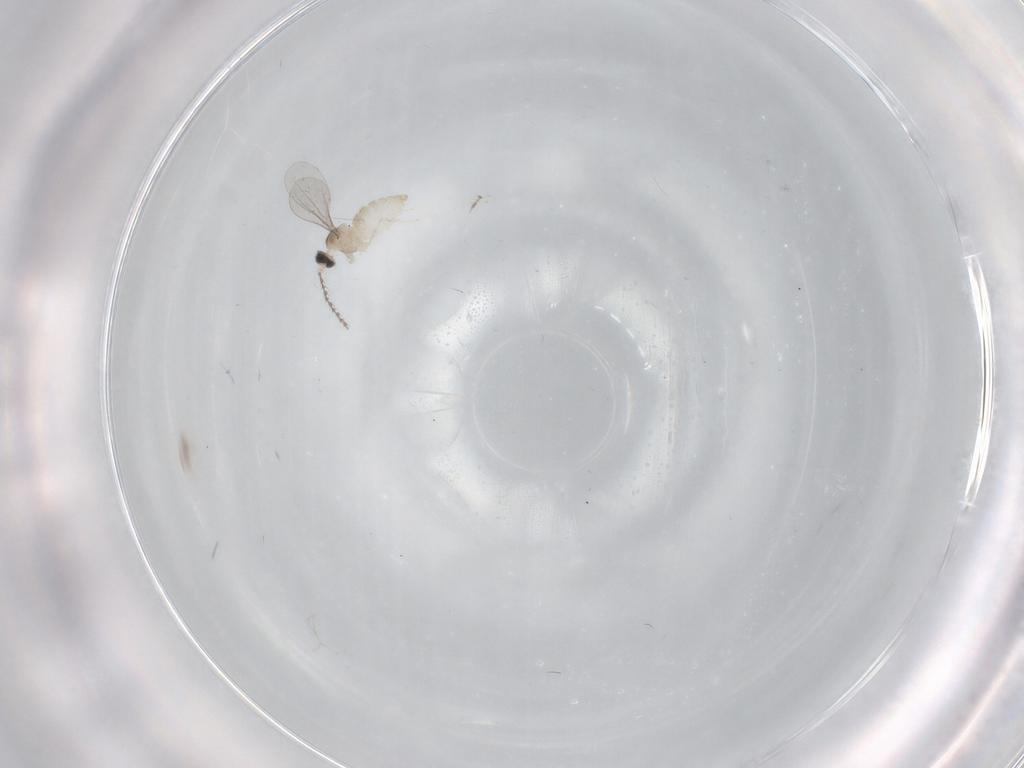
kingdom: Animalia
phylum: Arthropoda
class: Insecta
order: Diptera
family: Cecidomyiidae
